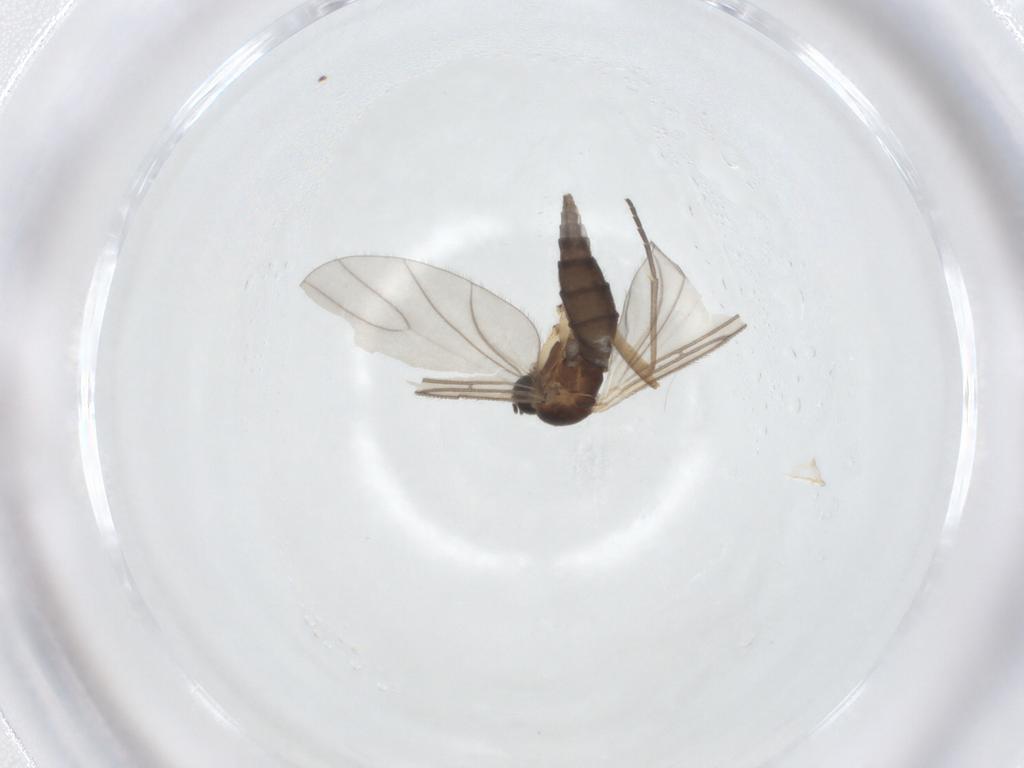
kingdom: Animalia
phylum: Arthropoda
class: Insecta
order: Diptera
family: Sciaridae
